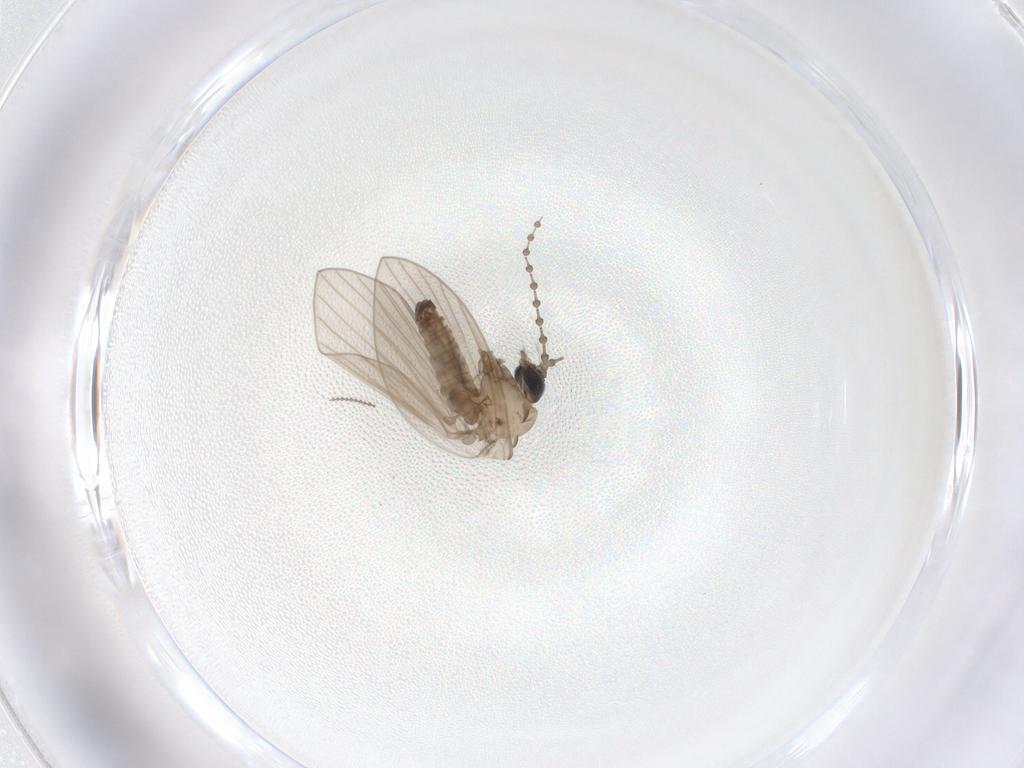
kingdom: Animalia
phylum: Arthropoda
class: Insecta
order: Diptera
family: Psychodidae
